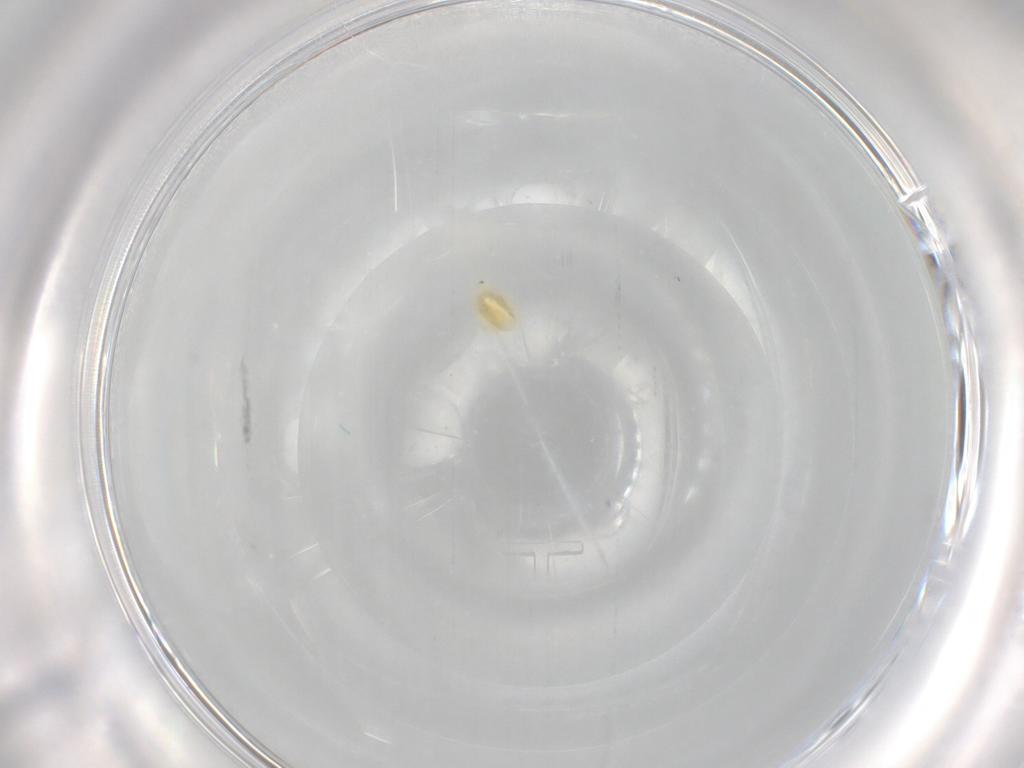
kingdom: Animalia
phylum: Arthropoda
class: Arachnida
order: Trombidiformes
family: Eupodidae
